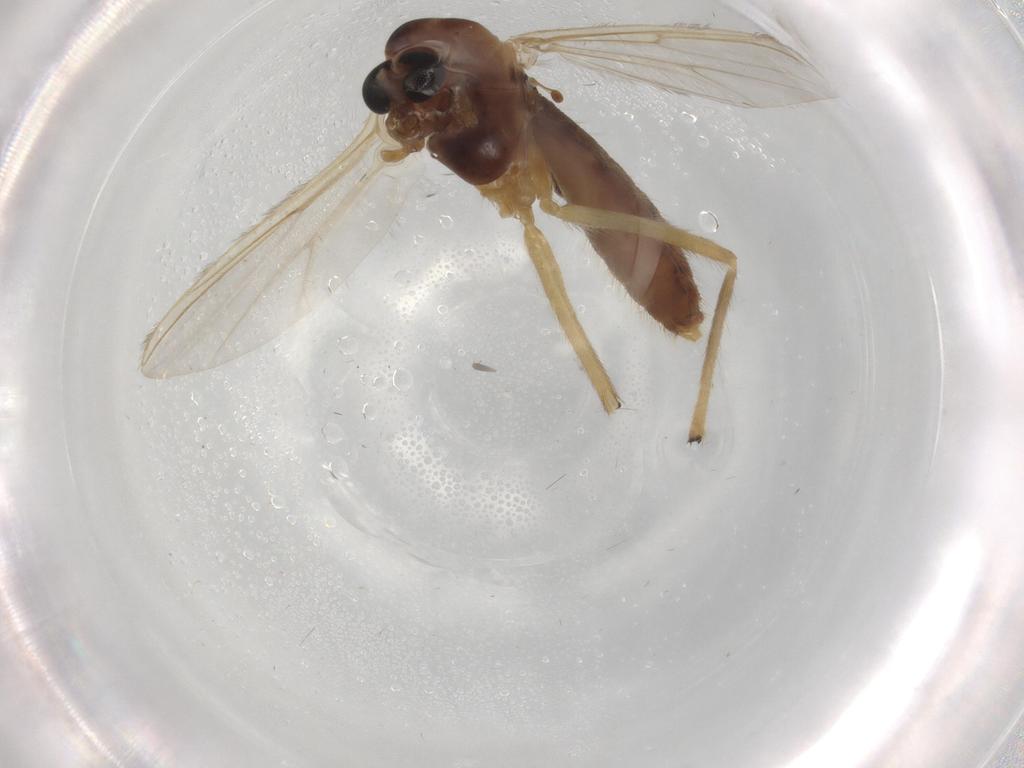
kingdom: Animalia
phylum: Arthropoda
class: Insecta
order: Diptera
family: Chironomidae
